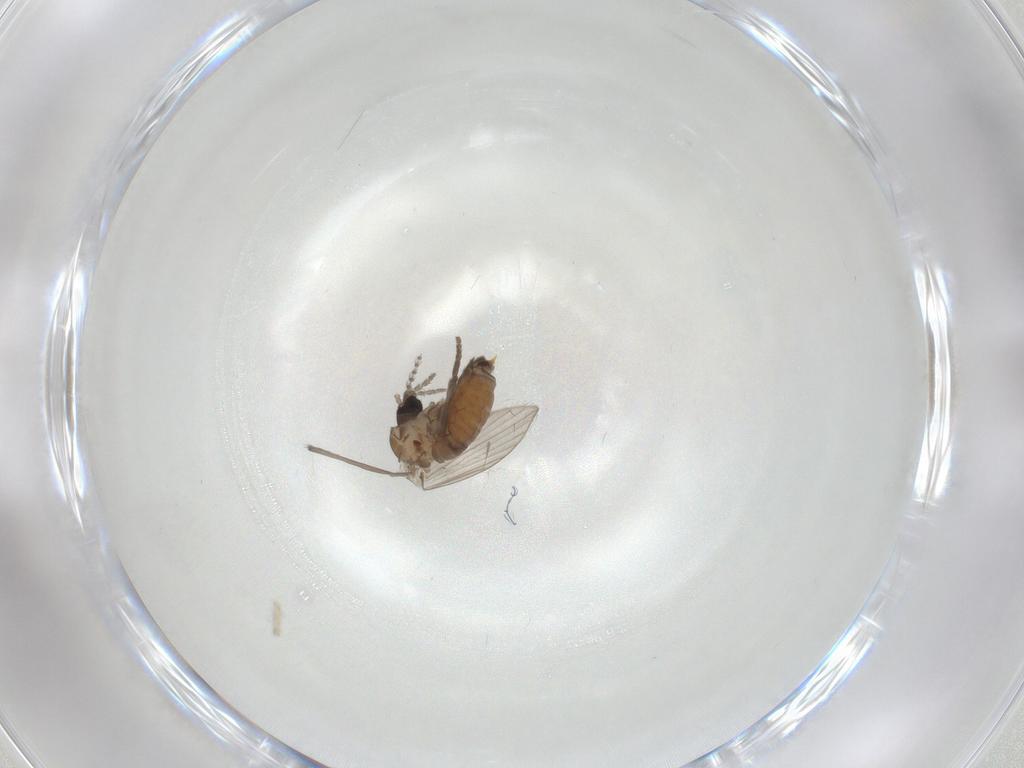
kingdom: Animalia
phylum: Arthropoda
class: Insecta
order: Diptera
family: Psychodidae
